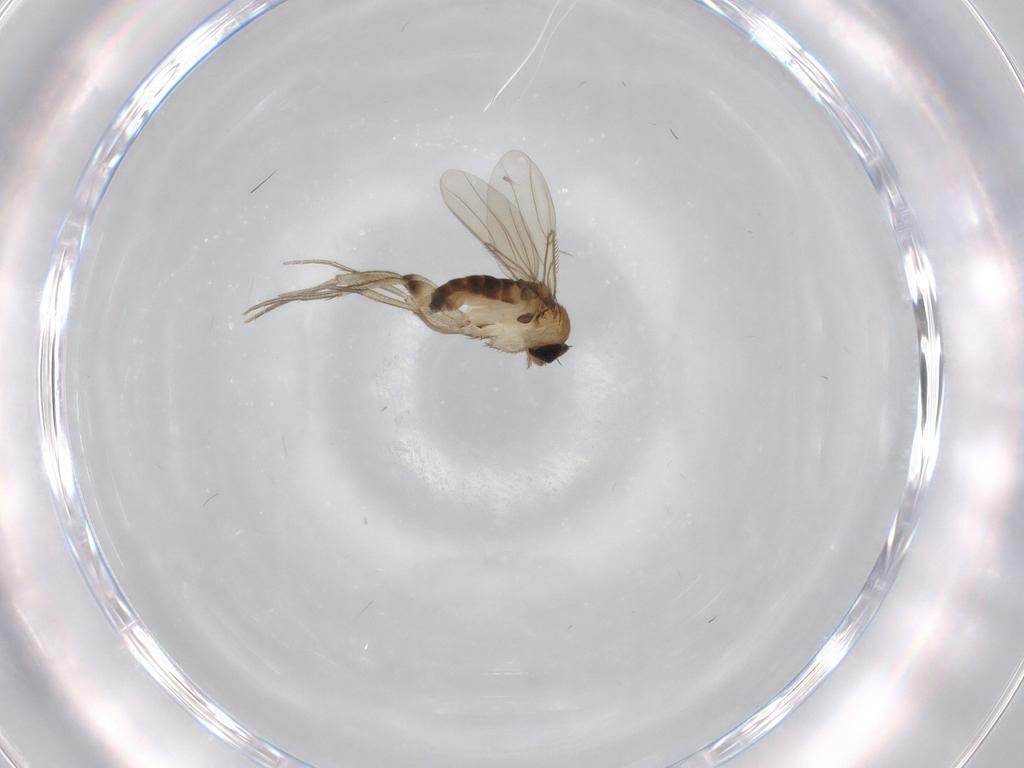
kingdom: Animalia
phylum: Arthropoda
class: Insecta
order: Diptera
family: Phoridae
